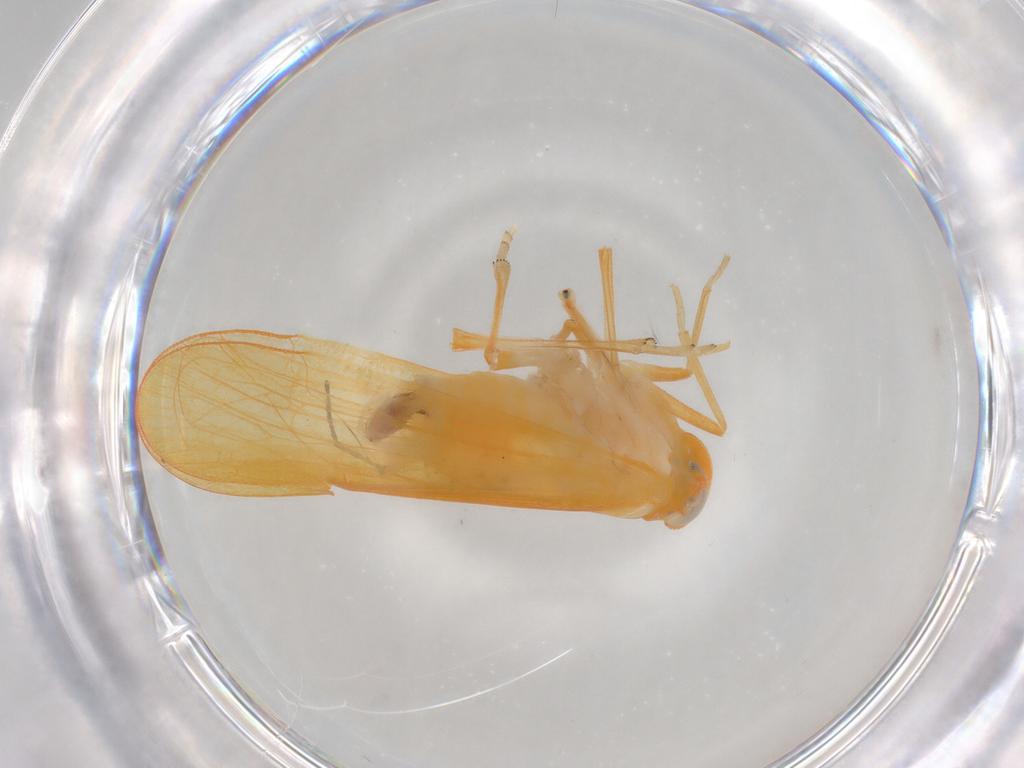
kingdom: Animalia
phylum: Arthropoda
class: Insecta
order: Hemiptera
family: Derbidae
